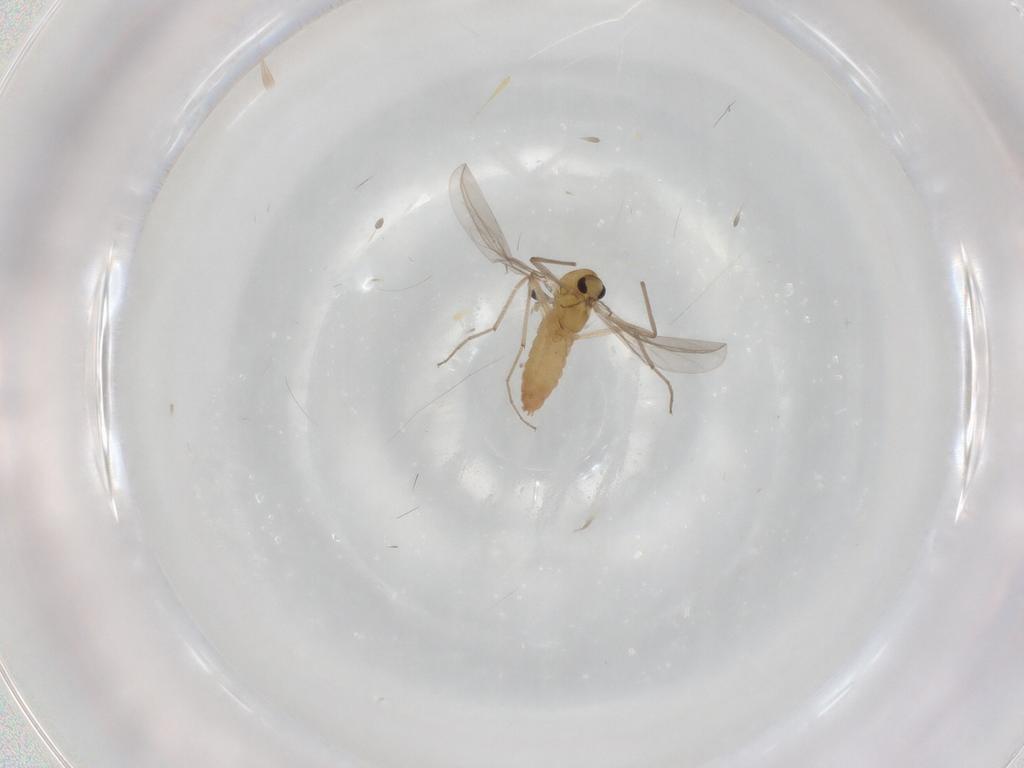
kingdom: Animalia
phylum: Arthropoda
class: Insecta
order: Diptera
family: Chironomidae
